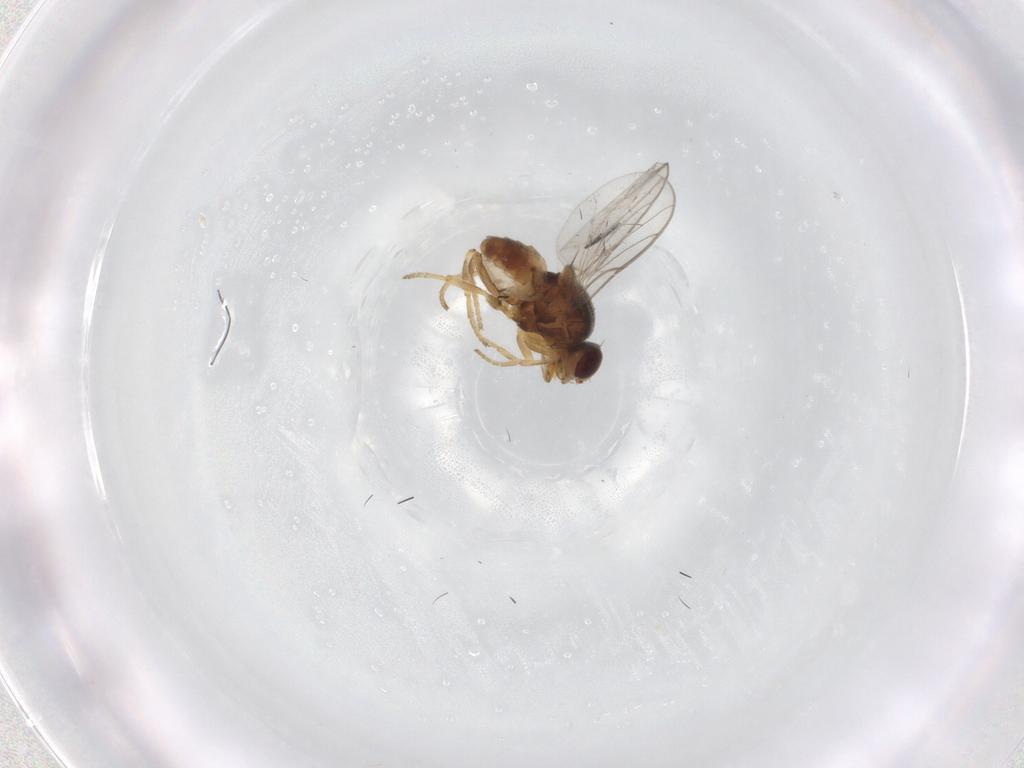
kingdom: Animalia
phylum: Arthropoda
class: Insecta
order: Diptera
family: Chloropidae
